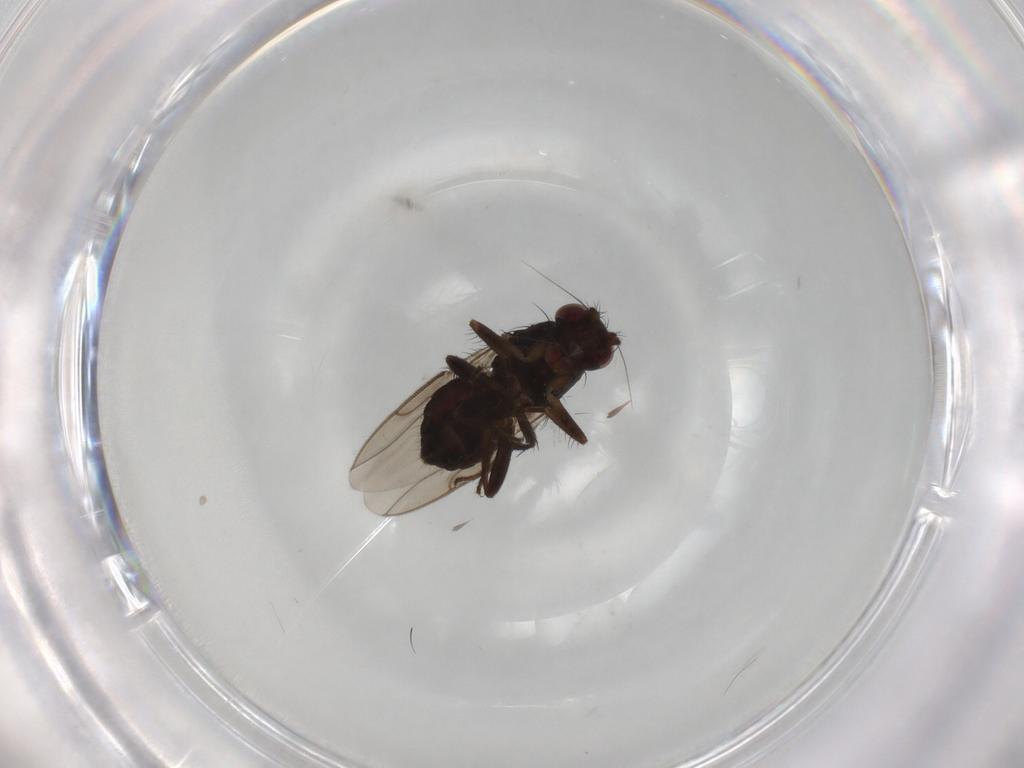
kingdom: Animalia
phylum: Arthropoda
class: Insecta
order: Diptera
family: Sphaeroceridae
